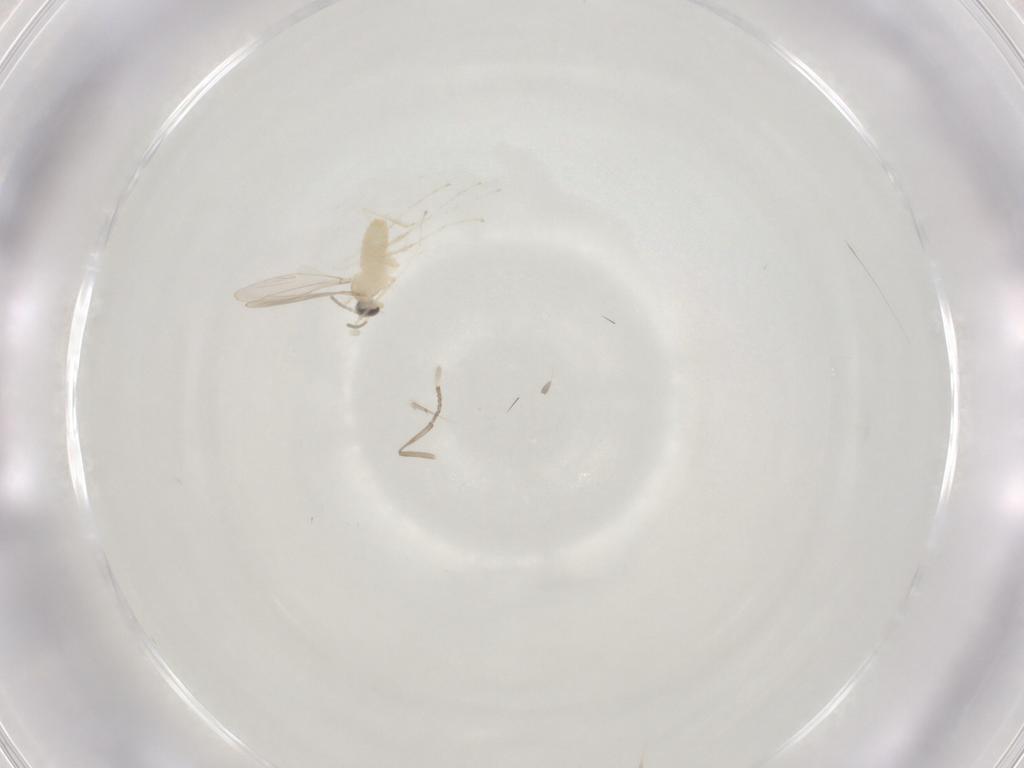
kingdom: Animalia
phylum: Arthropoda
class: Insecta
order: Diptera
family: Cecidomyiidae
